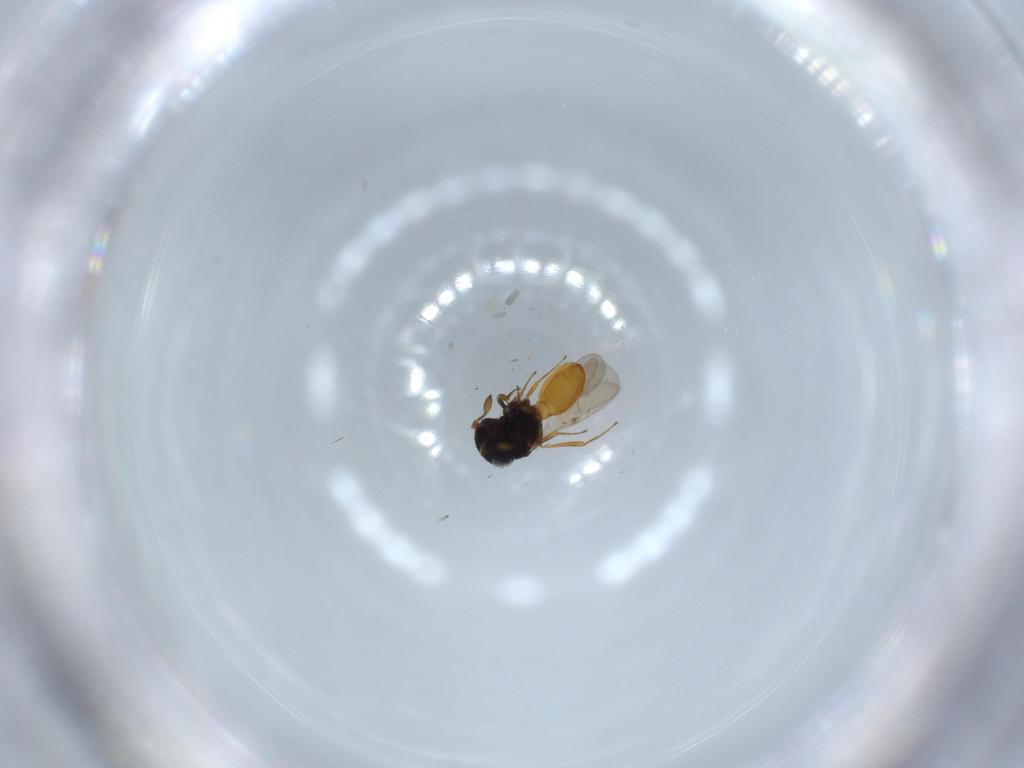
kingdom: Animalia
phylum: Arthropoda
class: Insecta
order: Hymenoptera
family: Scelionidae
